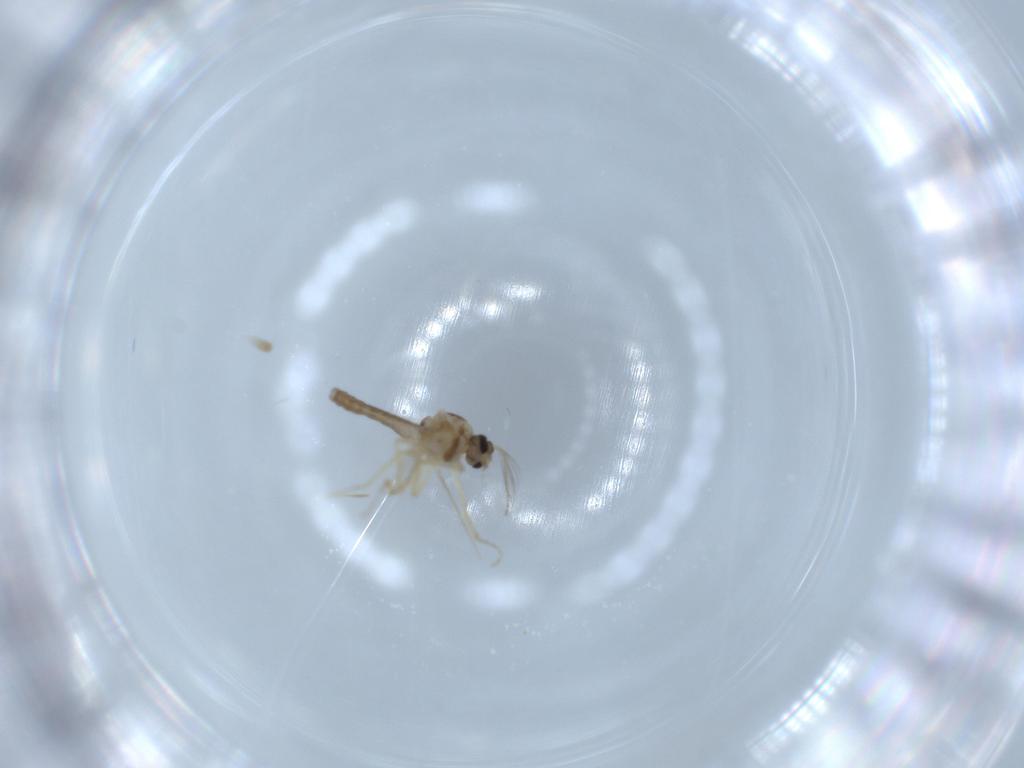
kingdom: Animalia
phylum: Arthropoda
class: Insecta
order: Diptera
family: Ceratopogonidae
